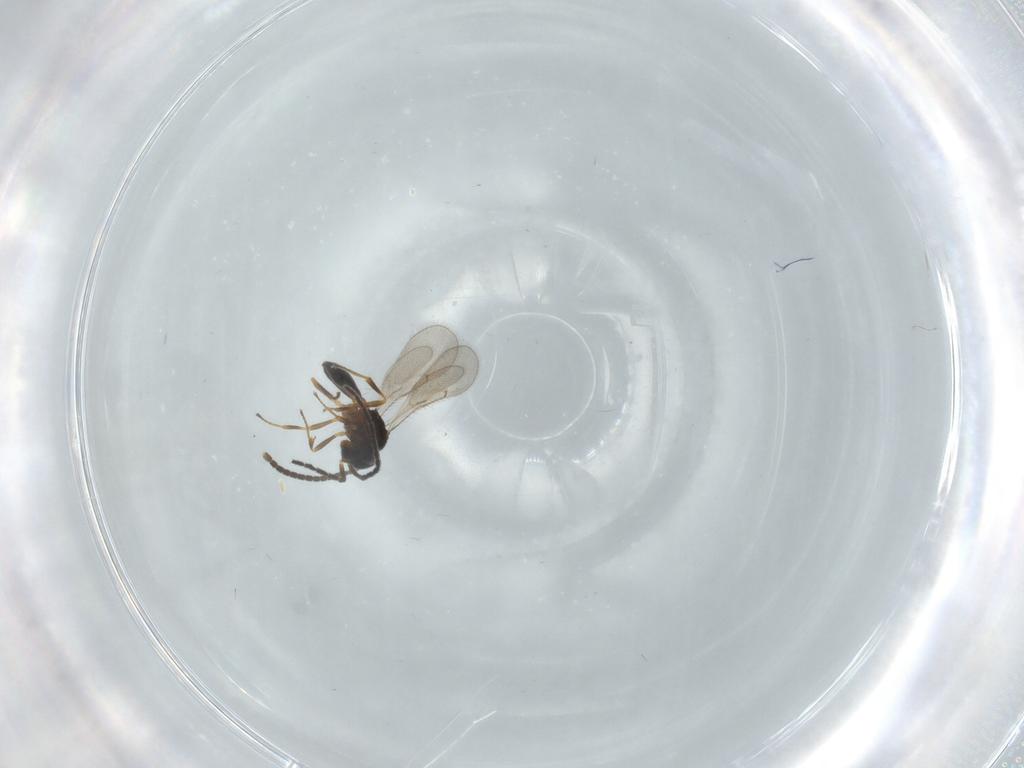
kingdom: Animalia
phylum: Arthropoda
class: Insecta
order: Hymenoptera
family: Scelionidae
